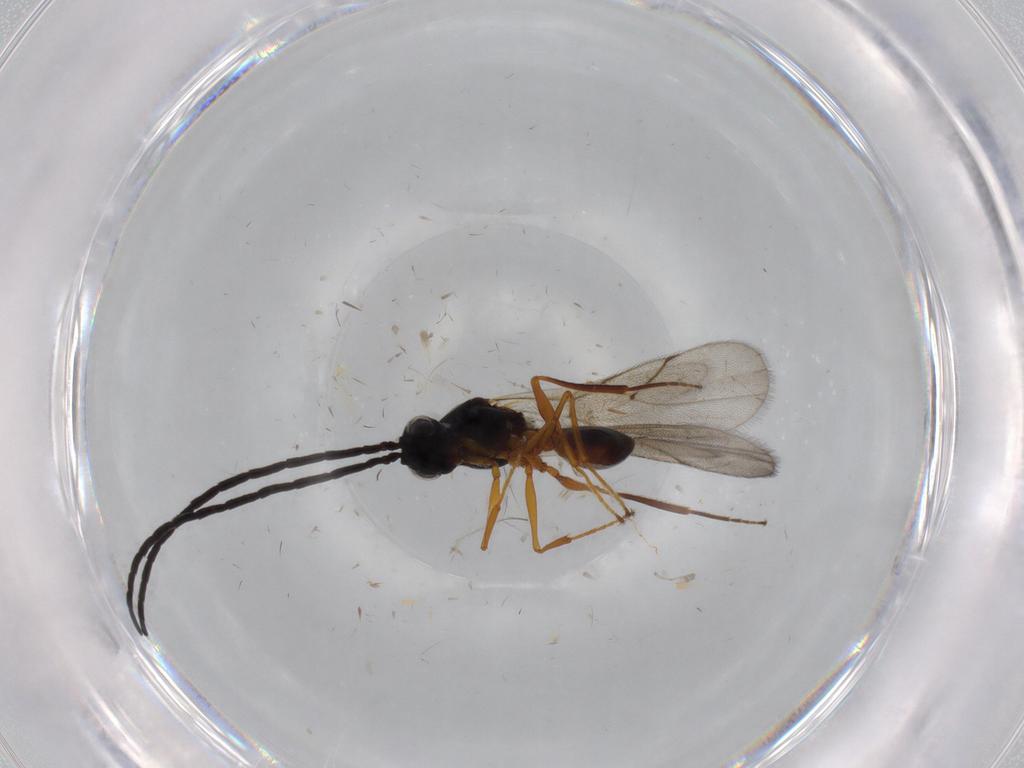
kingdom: Animalia
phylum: Arthropoda
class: Insecta
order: Hymenoptera
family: Figitidae
